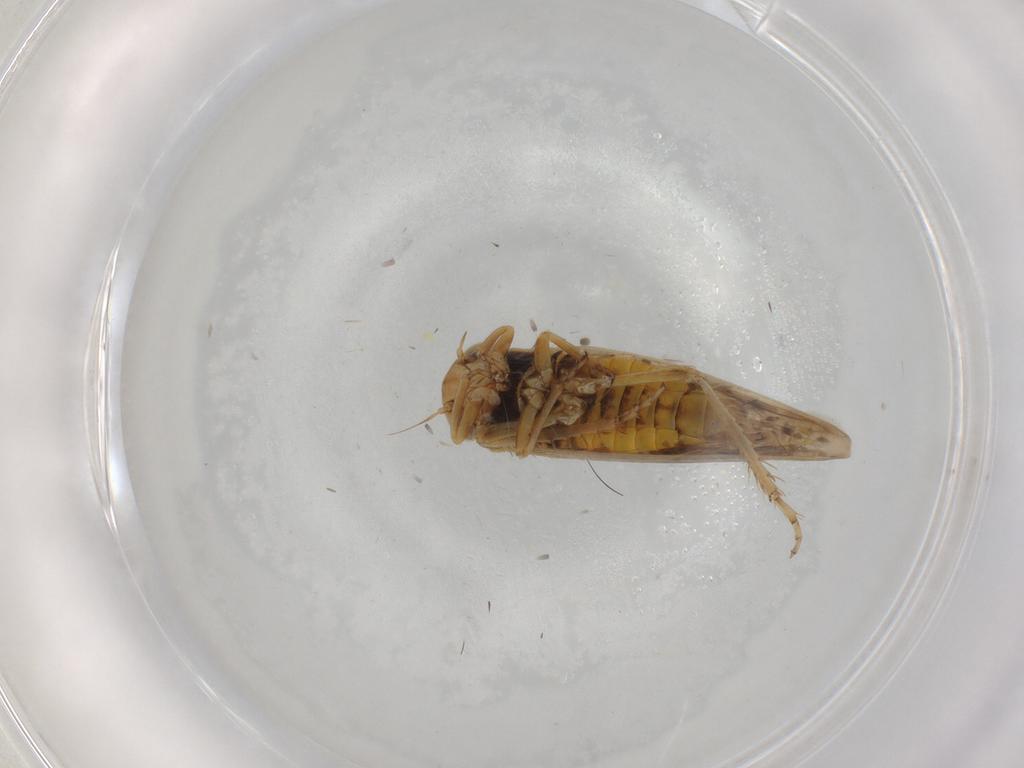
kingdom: Animalia
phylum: Arthropoda
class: Insecta
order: Hemiptera
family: Cicadellidae
